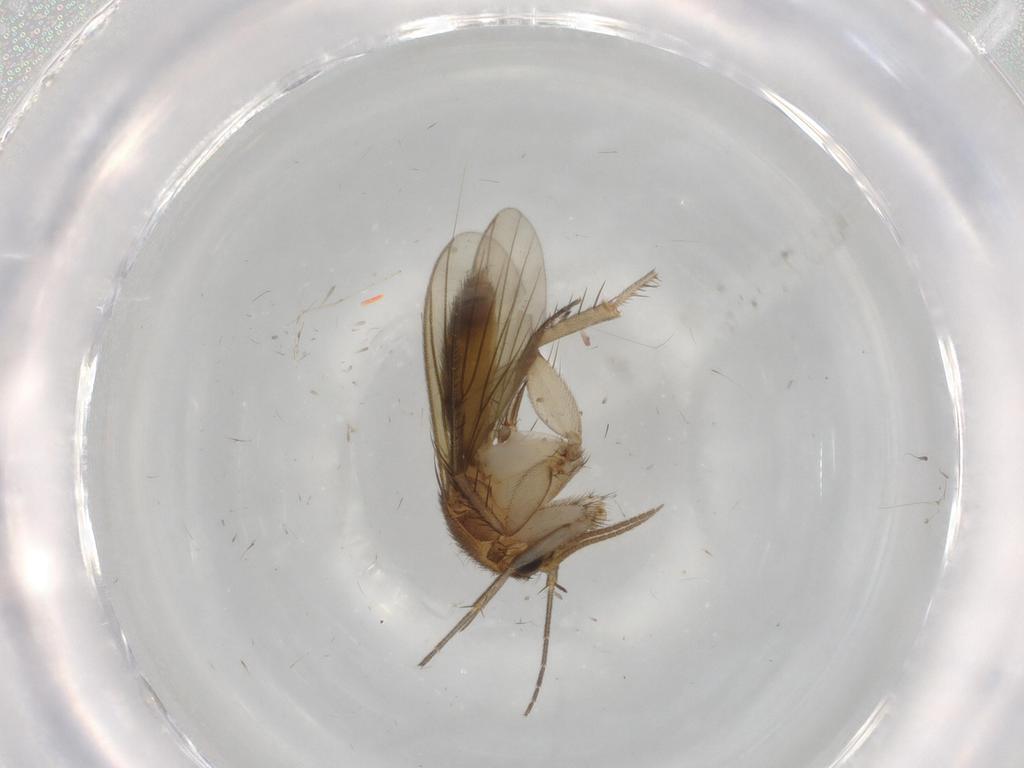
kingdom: Animalia
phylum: Arthropoda
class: Insecta
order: Diptera
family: Mycetophilidae
